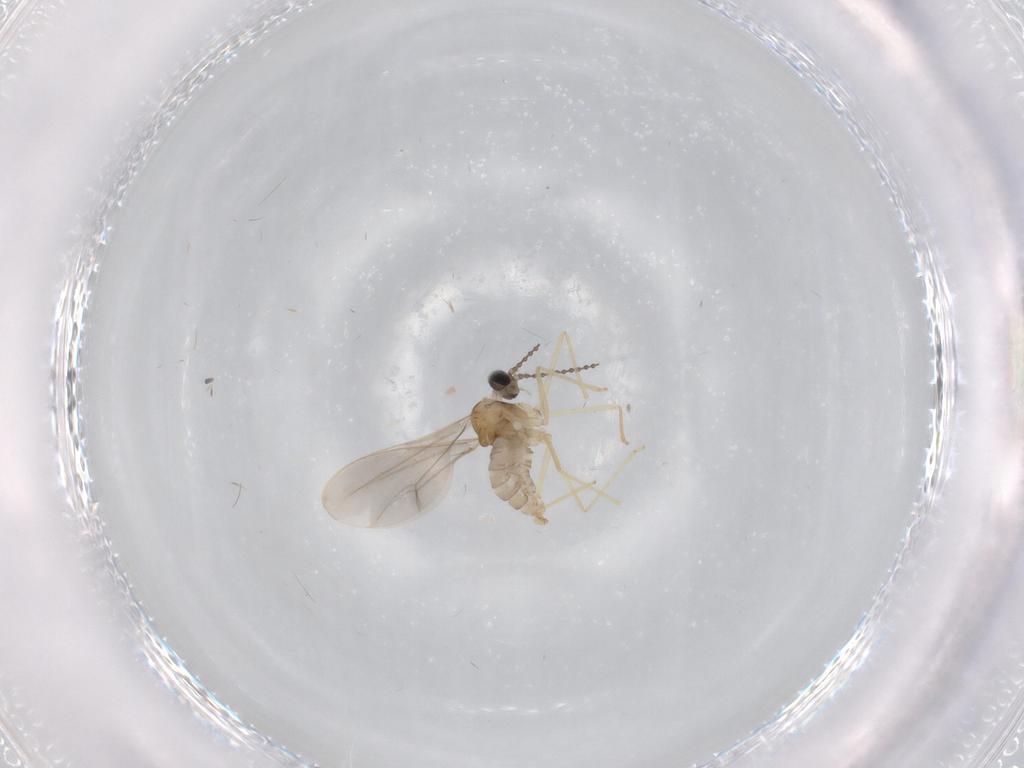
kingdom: Animalia
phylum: Arthropoda
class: Insecta
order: Diptera
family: Cecidomyiidae
